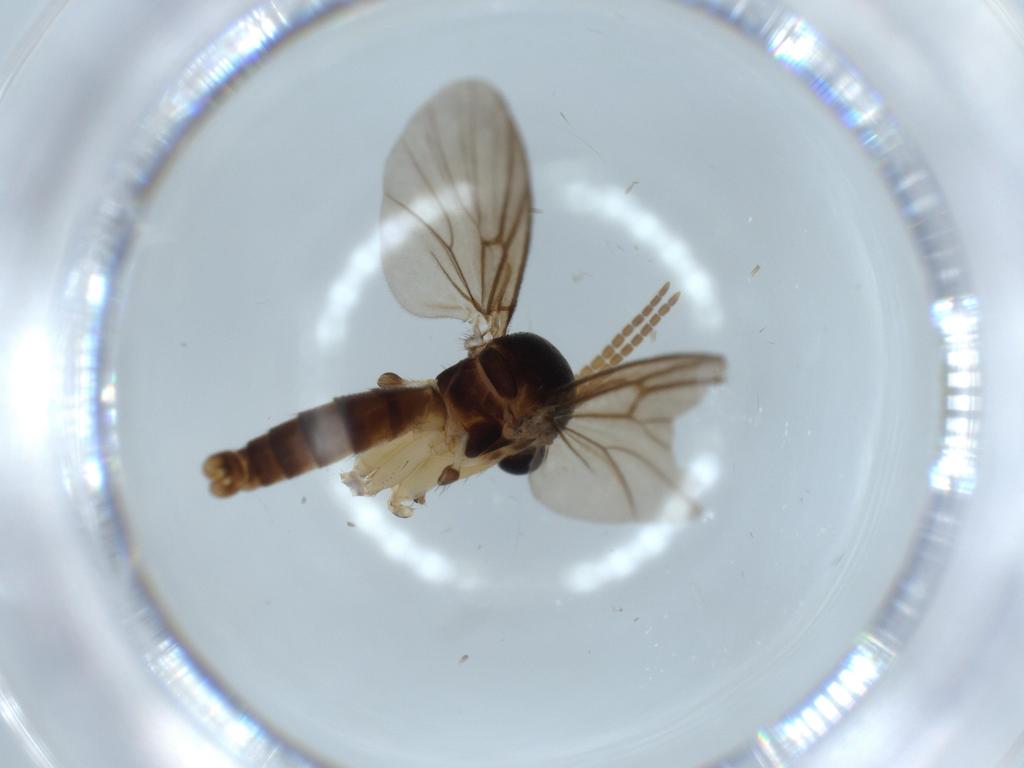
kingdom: Animalia
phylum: Arthropoda
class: Insecta
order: Diptera
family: Mycetophilidae
